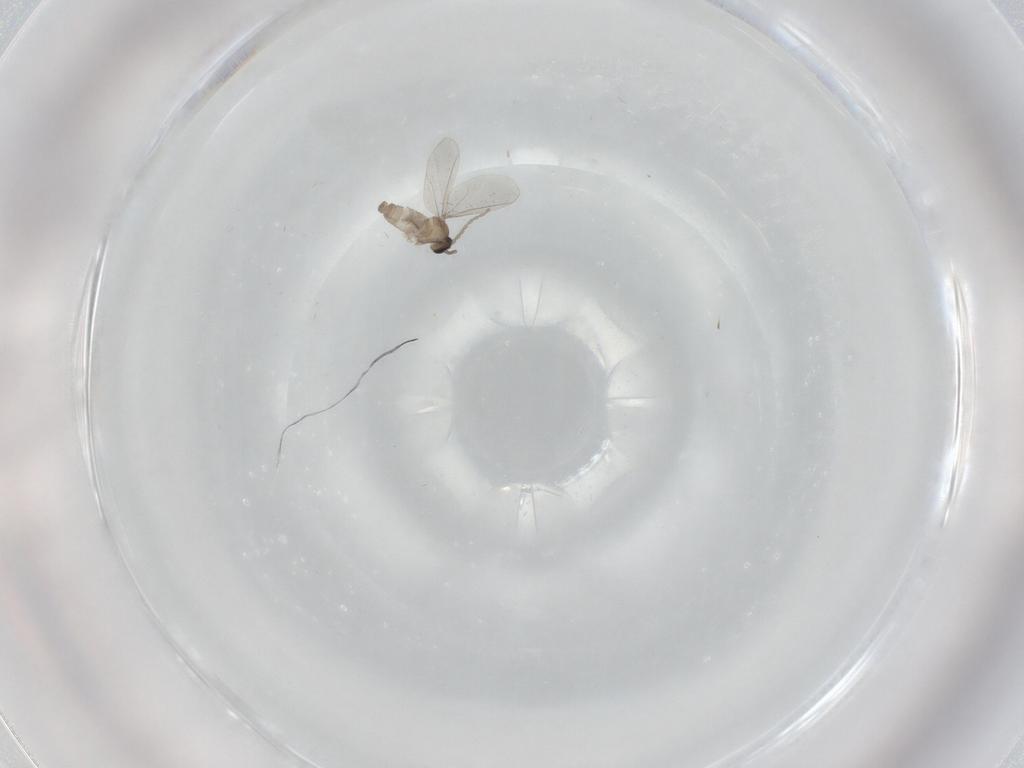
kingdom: Animalia
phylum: Arthropoda
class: Insecta
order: Diptera
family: Cecidomyiidae
